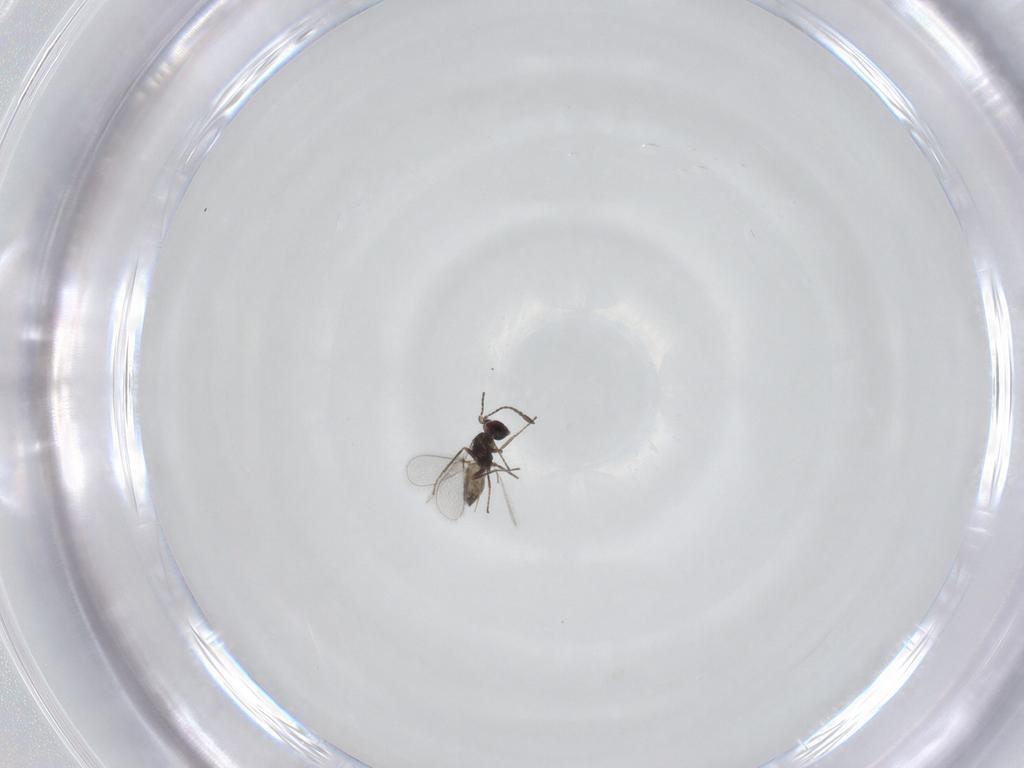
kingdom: Animalia
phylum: Arthropoda
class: Insecta
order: Hymenoptera
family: Mymaridae
